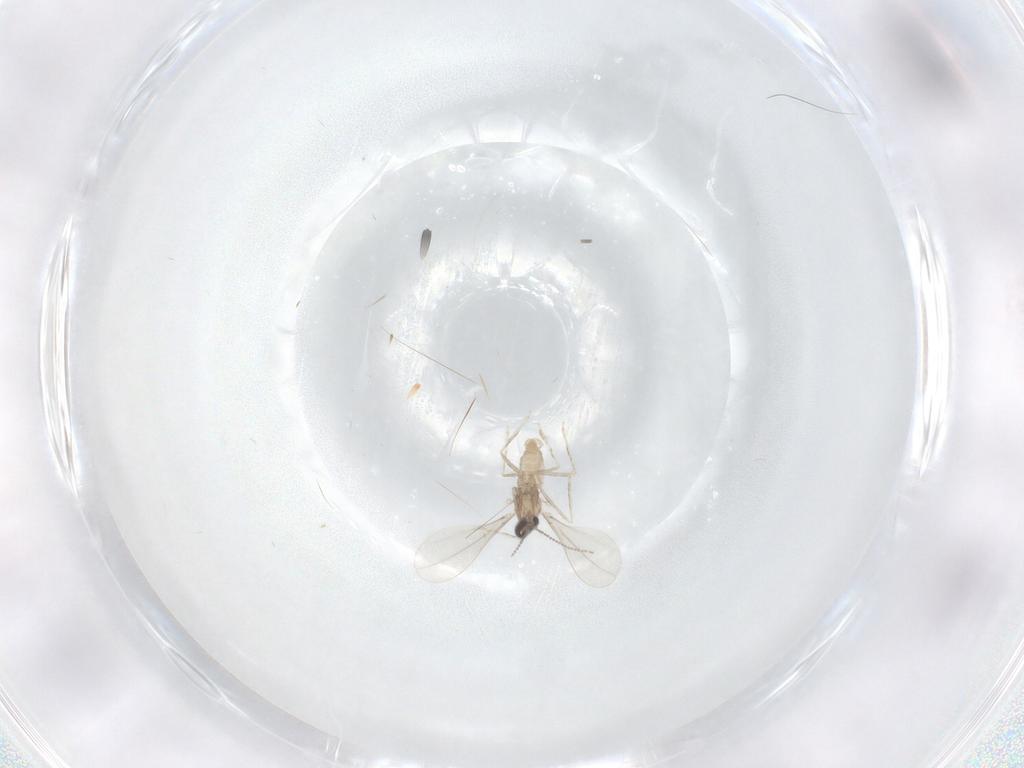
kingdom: Animalia
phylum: Arthropoda
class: Insecta
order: Diptera
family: Cecidomyiidae
